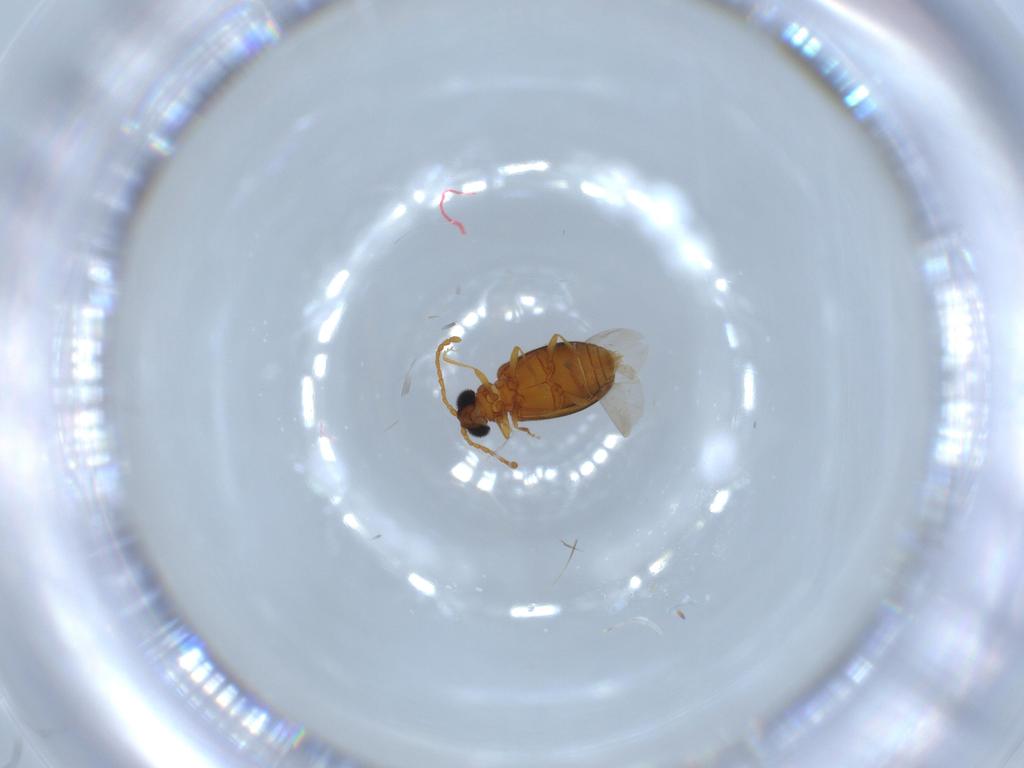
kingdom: Animalia
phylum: Arthropoda
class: Insecta
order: Coleoptera
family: Aderidae
